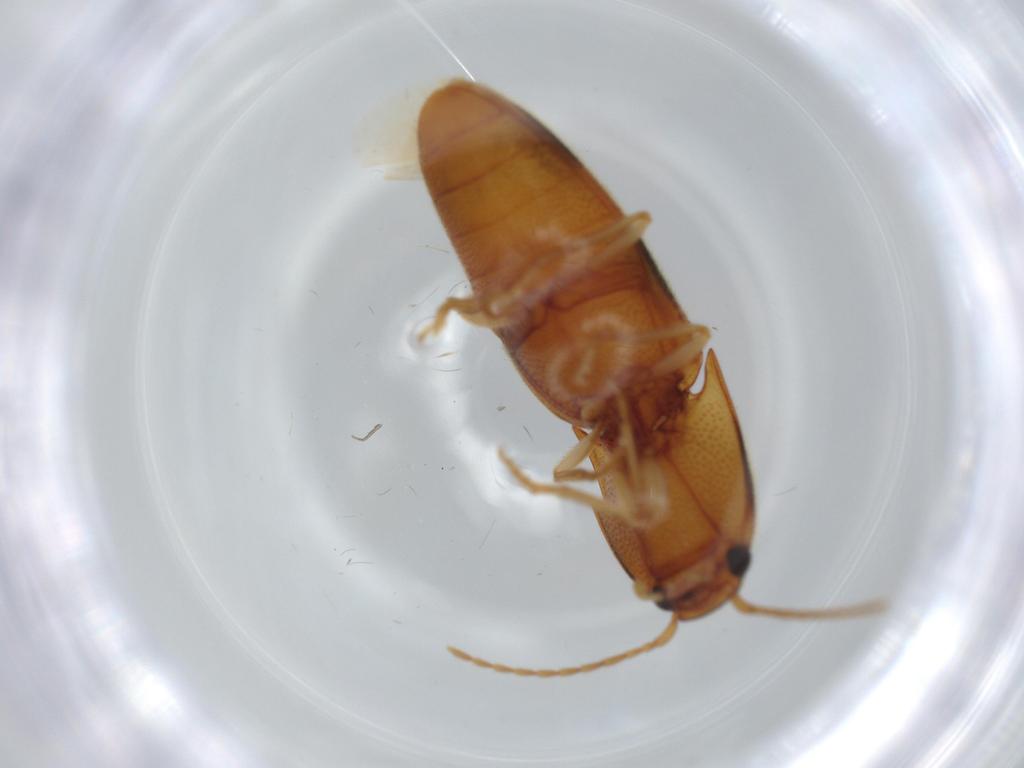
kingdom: Animalia
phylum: Arthropoda
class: Insecta
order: Coleoptera
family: Elateridae
